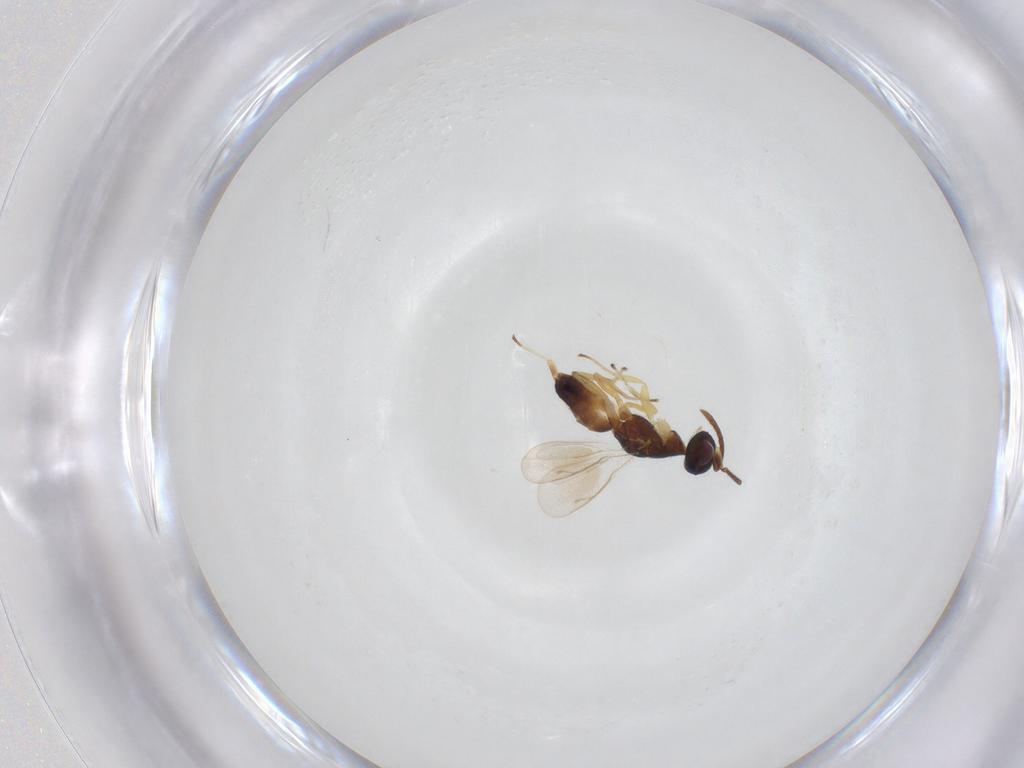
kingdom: Animalia
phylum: Arthropoda
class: Insecta
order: Hymenoptera
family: Eupelmidae
